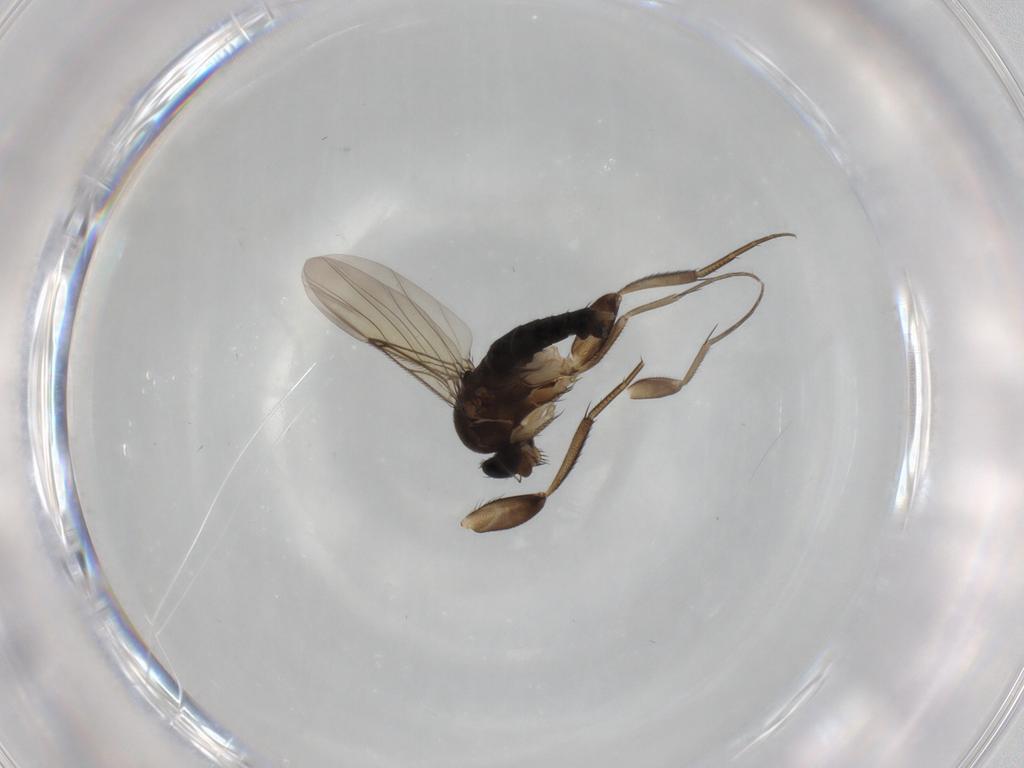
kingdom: Animalia
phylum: Arthropoda
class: Insecta
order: Diptera
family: Phoridae
